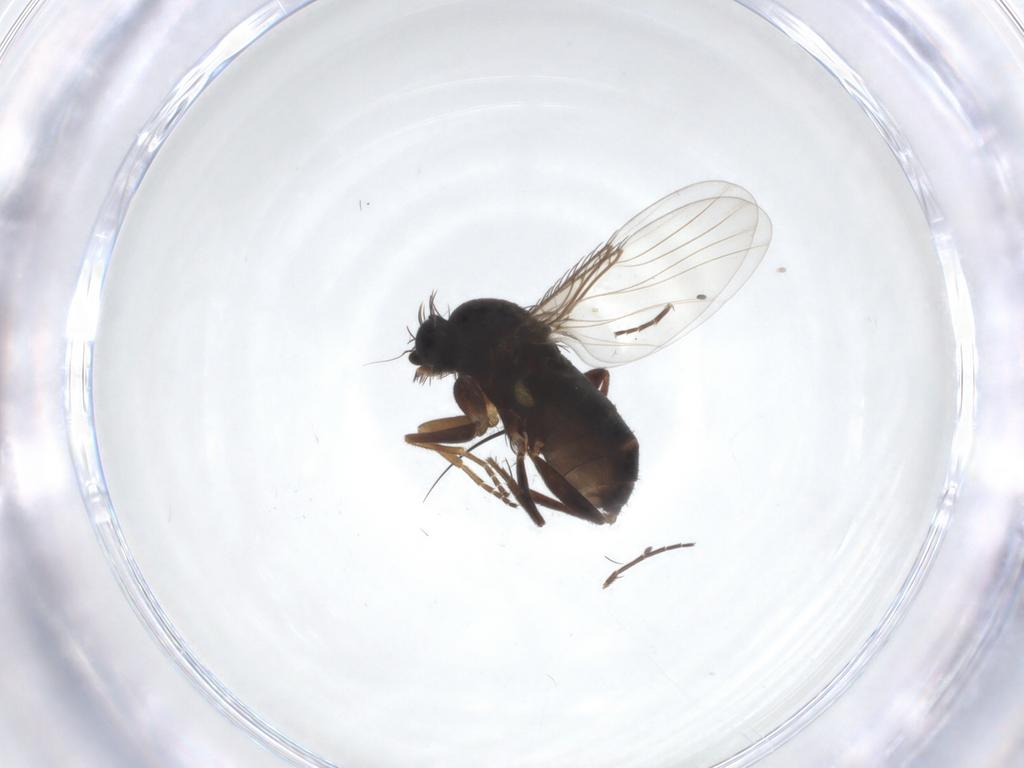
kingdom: Animalia
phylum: Arthropoda
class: Insecta
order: Diptera
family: Phoridae
